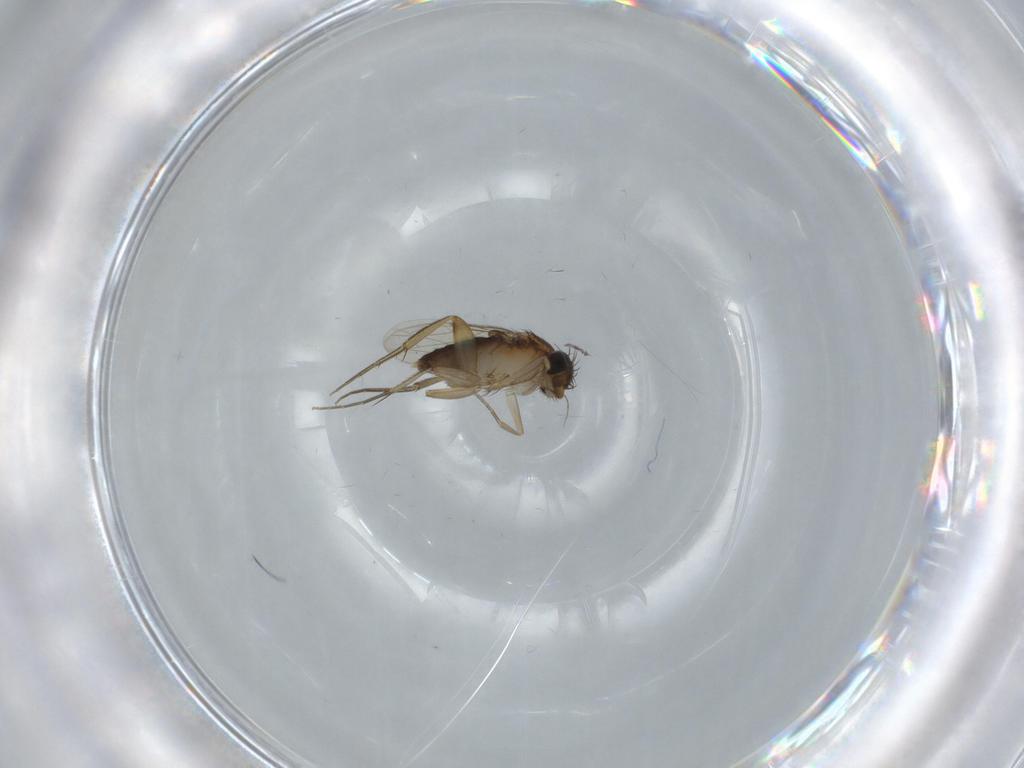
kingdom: Animalia
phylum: Arthropoda
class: Insecta
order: Diptera
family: Phoridae
